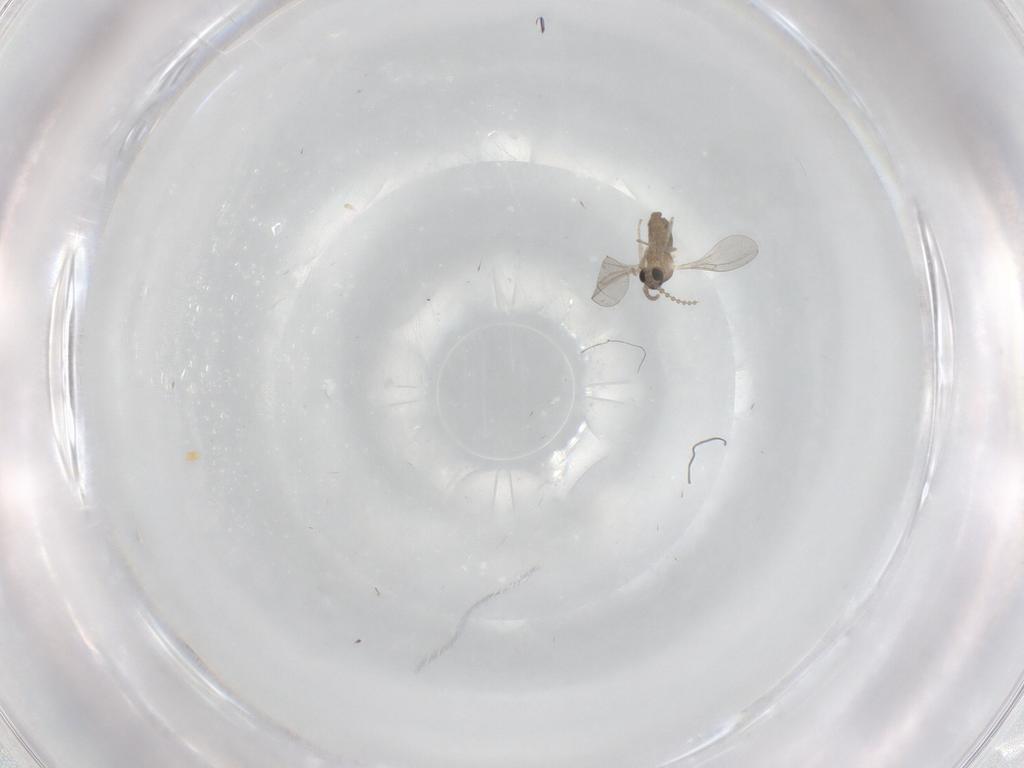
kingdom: Animalia
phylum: Arthropoda
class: Insecta
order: Diptera
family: Cecidomyiidae
